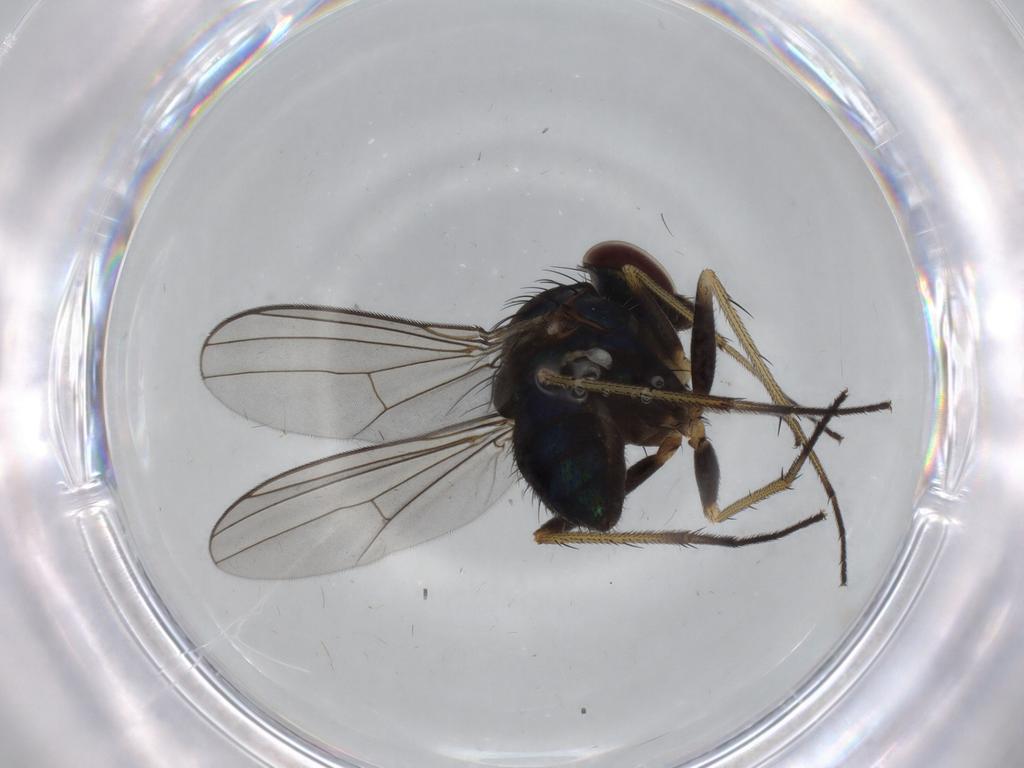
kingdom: Animalia
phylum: Arthropoda
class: Insecta
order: Diptera
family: Dolichopodidae
